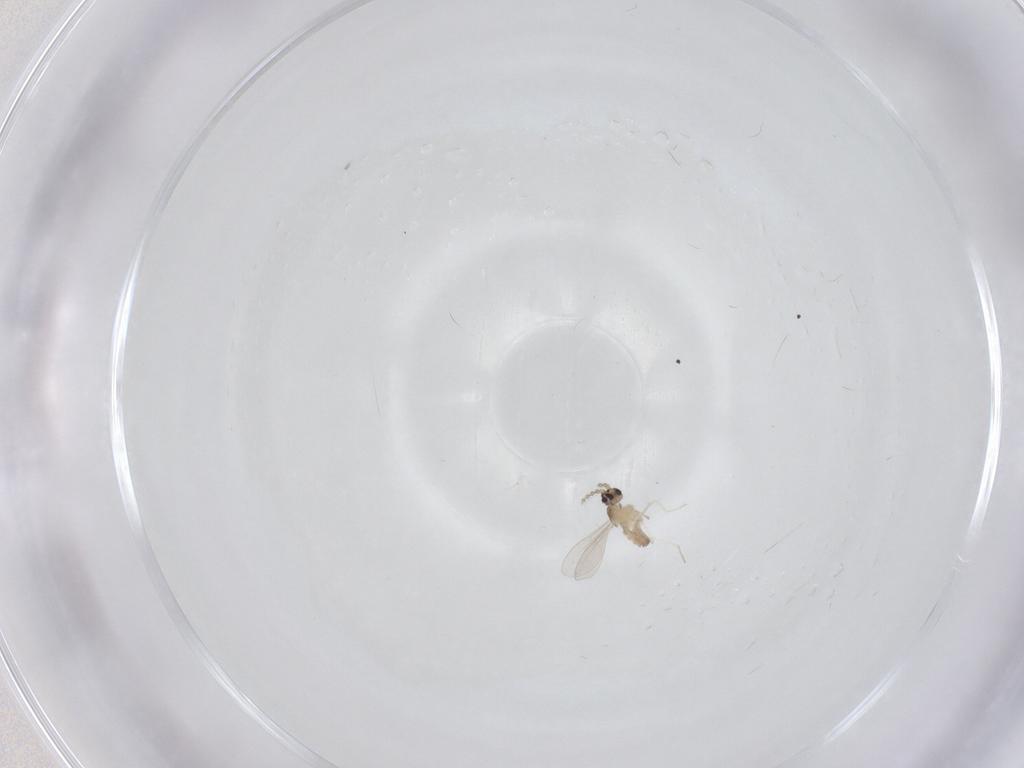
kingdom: Animalia
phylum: Arthropoda
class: Insecta
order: Diptera
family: Cecidomyiidae
